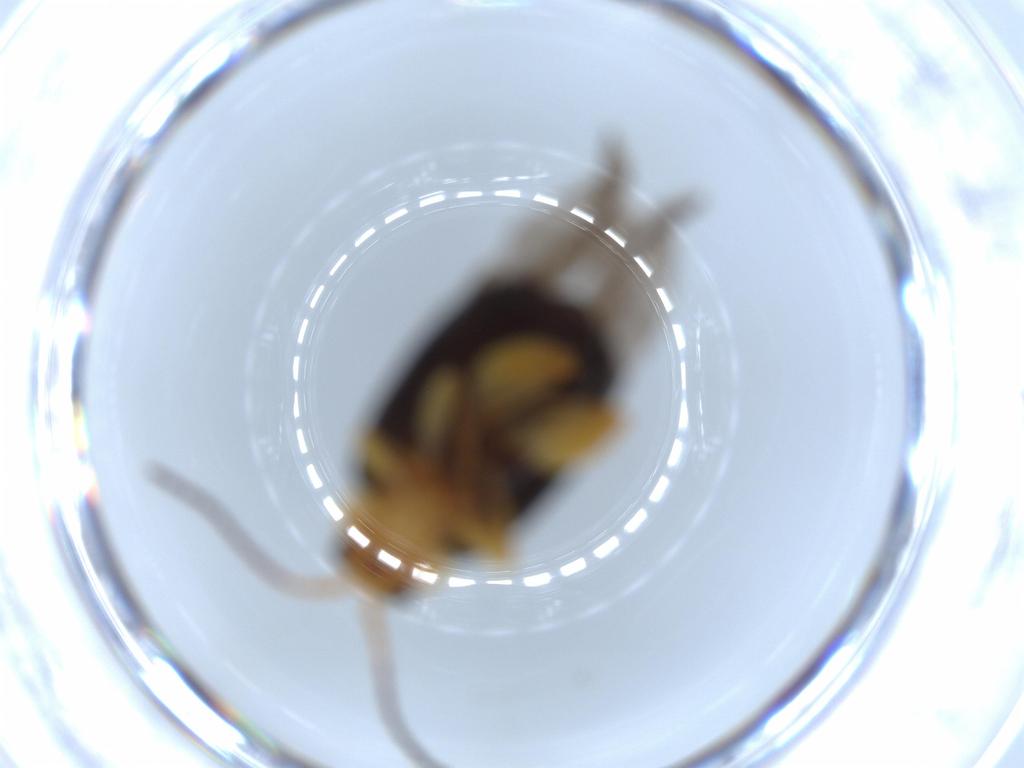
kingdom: Animalia
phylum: Arthropoda
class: Insecta
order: Coleoptera
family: Chrysomelidae
